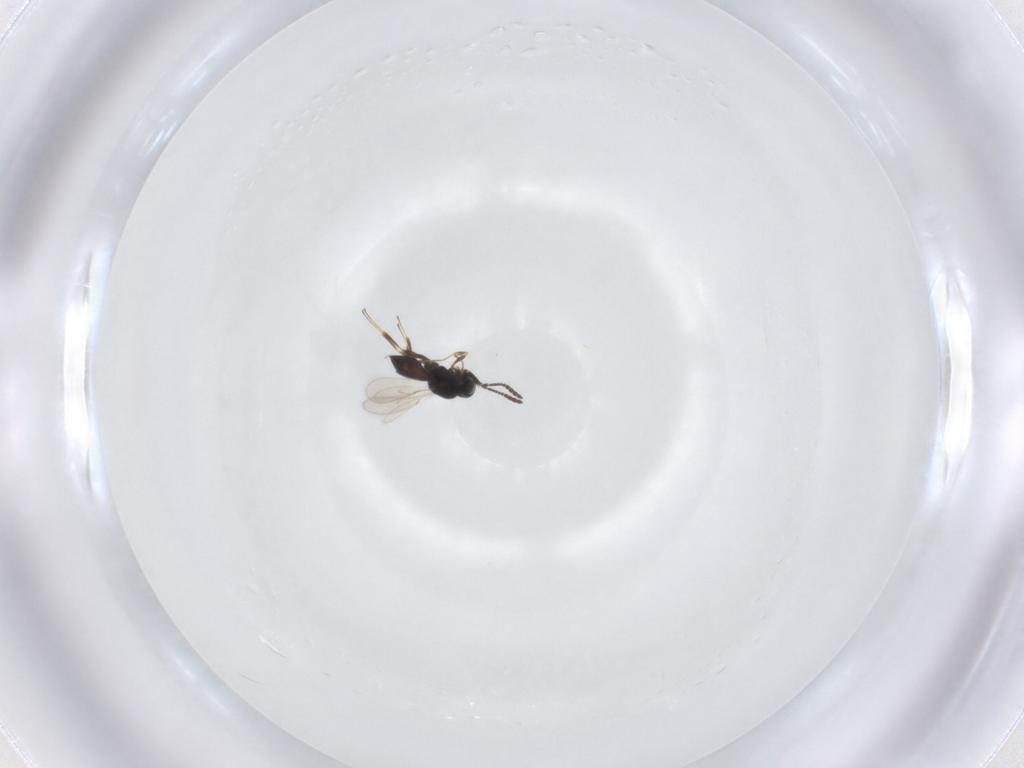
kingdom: Animalia
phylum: Arthropoda
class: Insecta
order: Hymenoptera
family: Scelionidae
